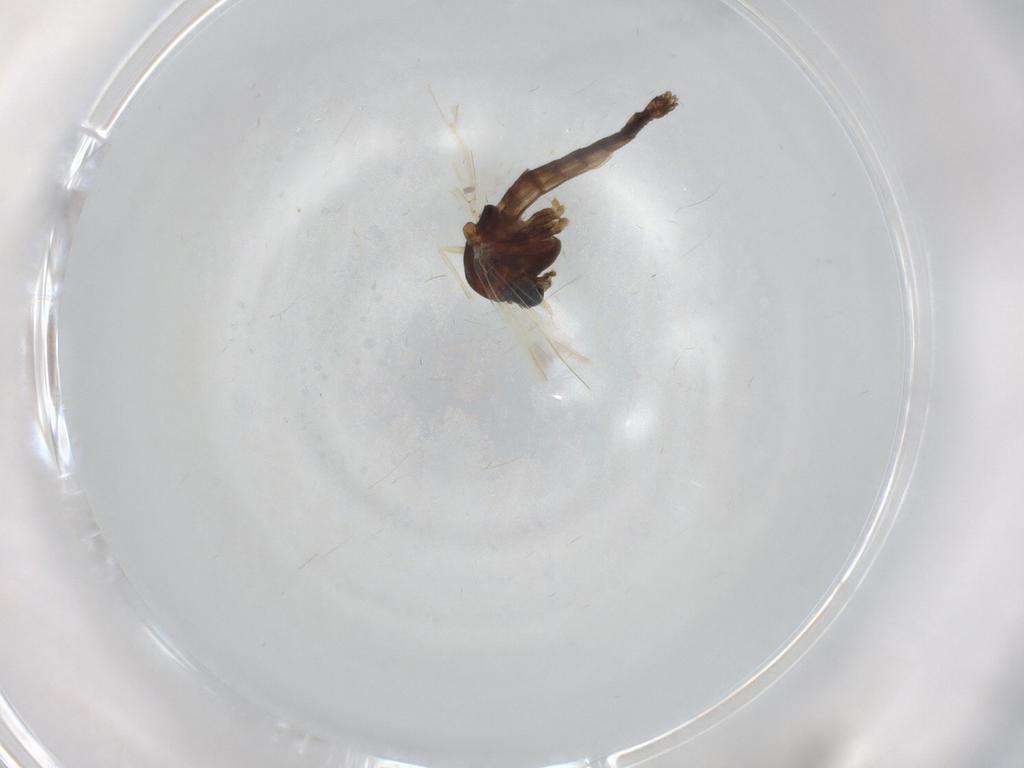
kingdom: Animalia
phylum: Arthropoda
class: Insecta
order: Diptera
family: Chironomidae
